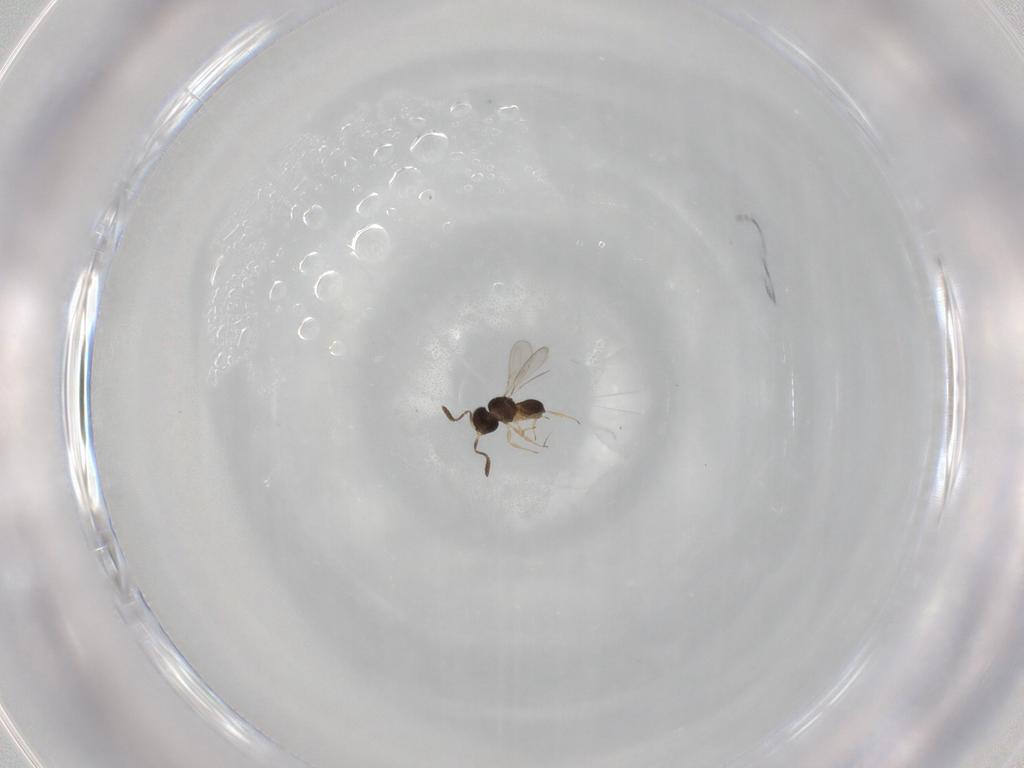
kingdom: Animalia
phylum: Arthropoda
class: Insecta
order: Hymenoptera
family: Scelionidae
